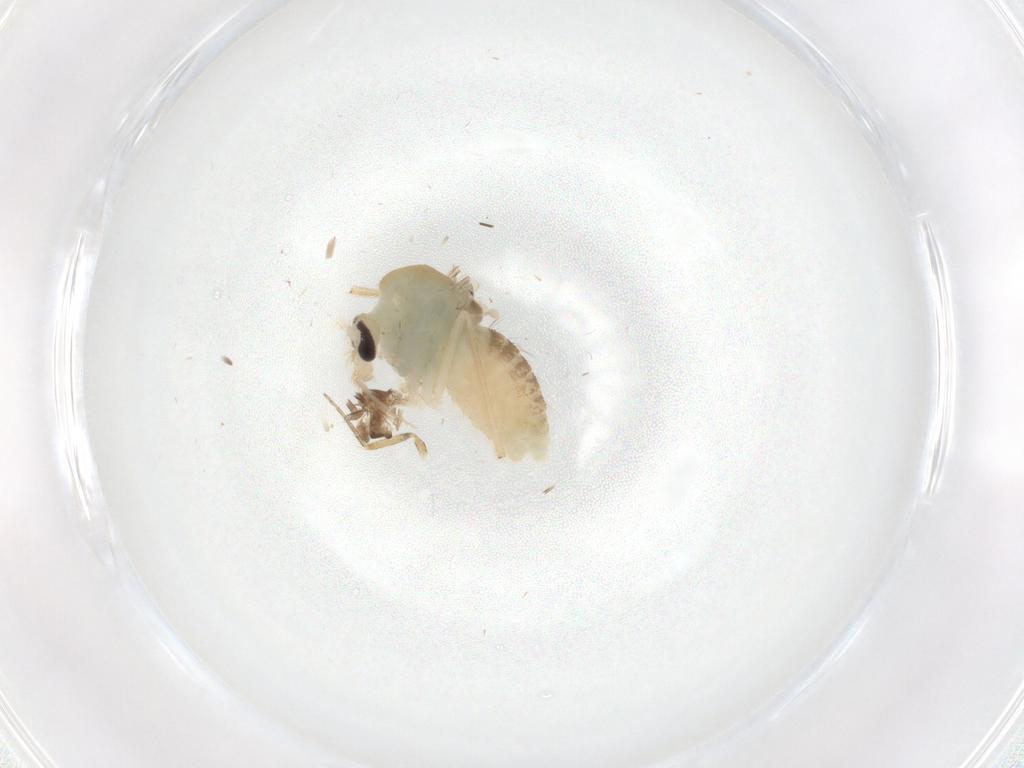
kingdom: Animalia
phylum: Arthropoda
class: Insecta
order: Diptera
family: Chironomidae
